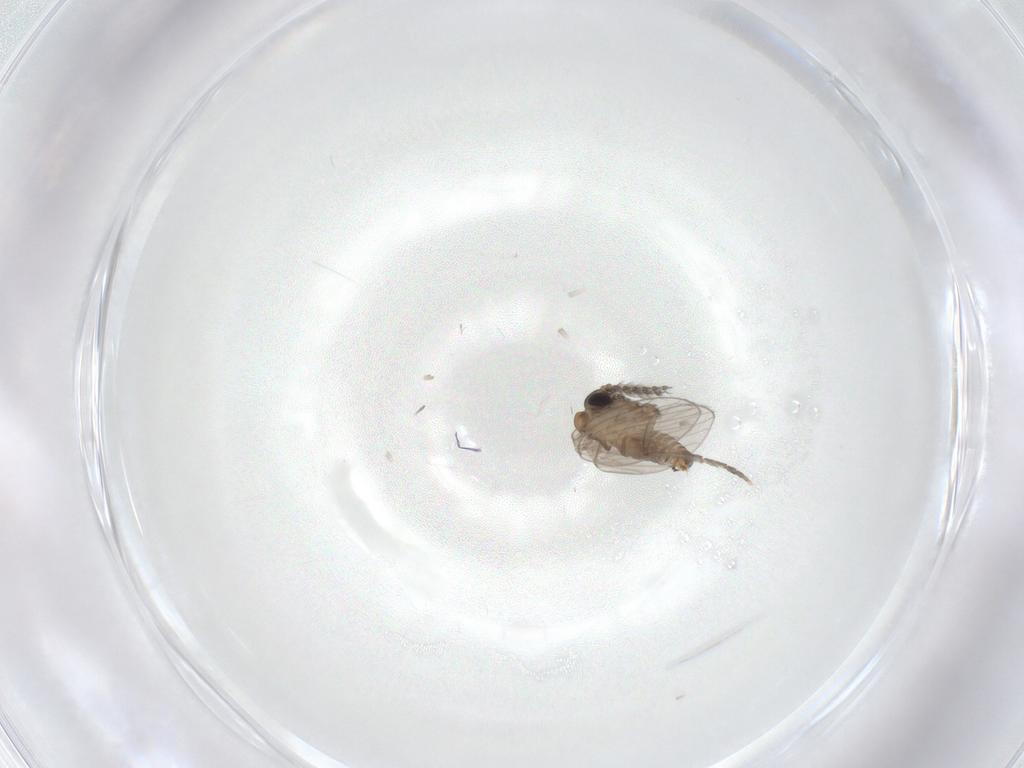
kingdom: Animalia
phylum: Arthropoda
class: Insecta
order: Diptera
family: Psychodidae
